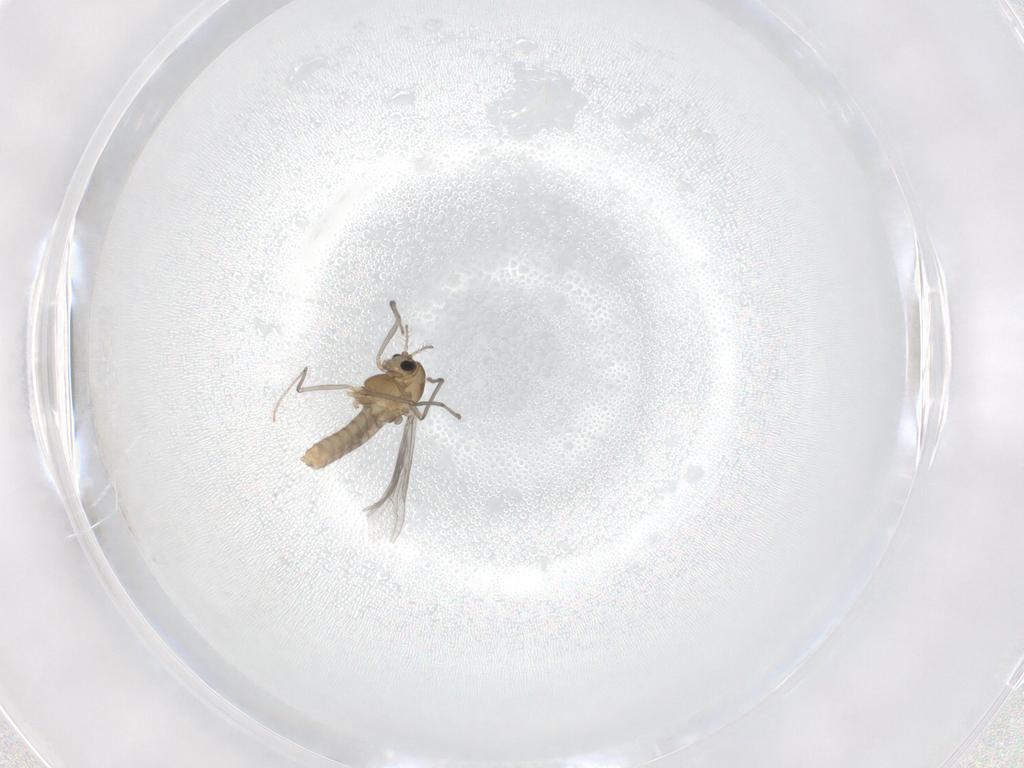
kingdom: Animalia
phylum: Arthropoda
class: Insecta
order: Diptera
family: Chironomidae
